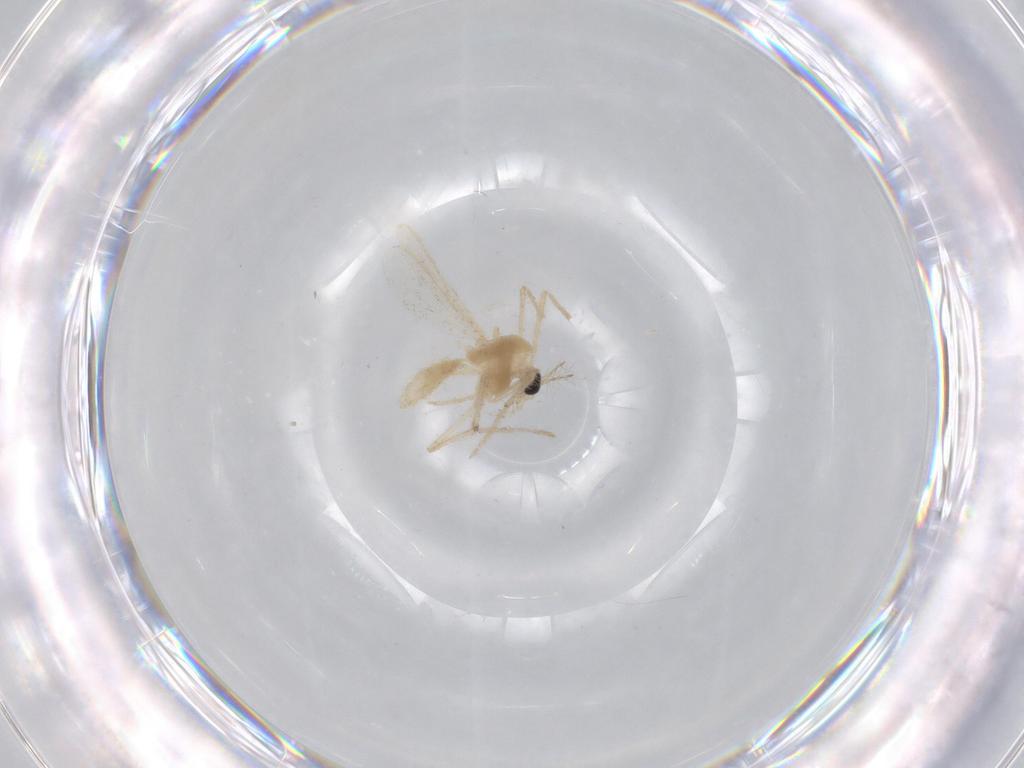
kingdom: Animalia
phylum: Arthropoda
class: Insecta
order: Diptera
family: Chironomidae
